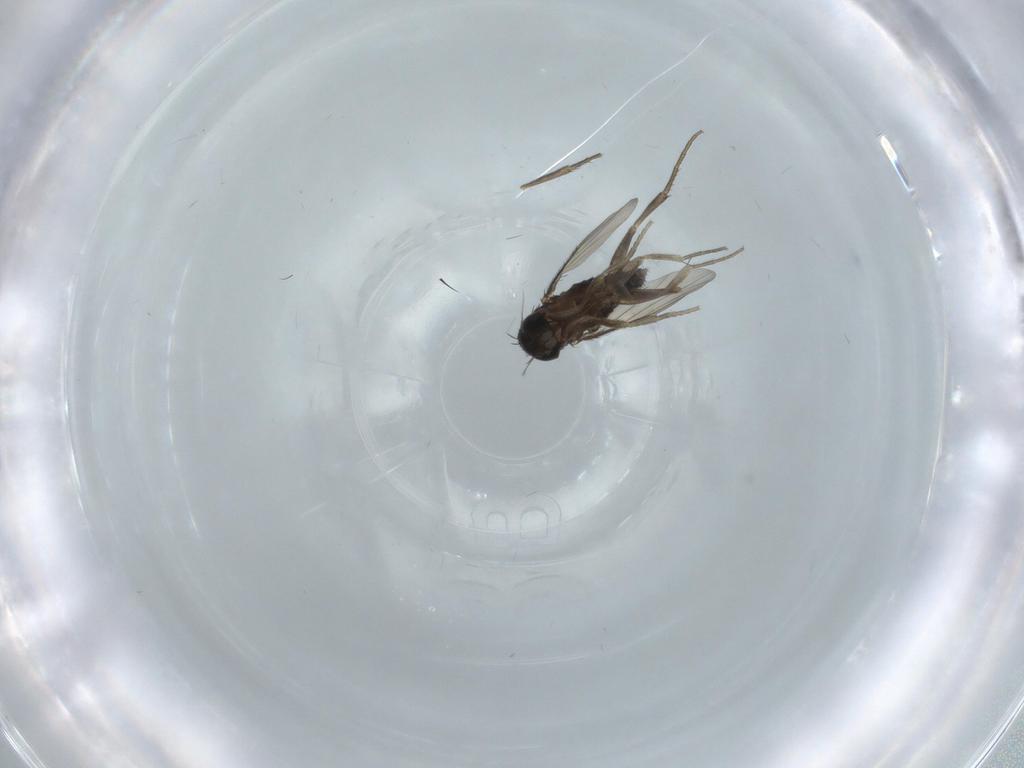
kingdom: Animalia
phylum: Arthropoda
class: Insecta
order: Diptera
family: Phoridae
